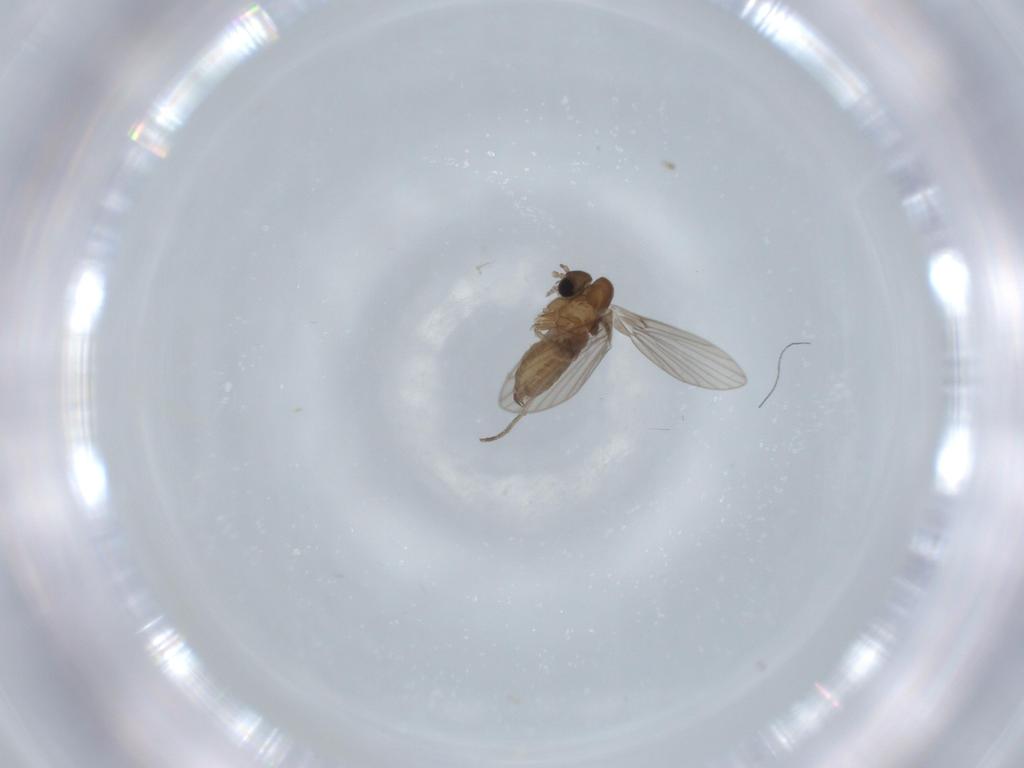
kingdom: Animalia
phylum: Arthropoda
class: Insecta
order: Diptera
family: Psychodidae
